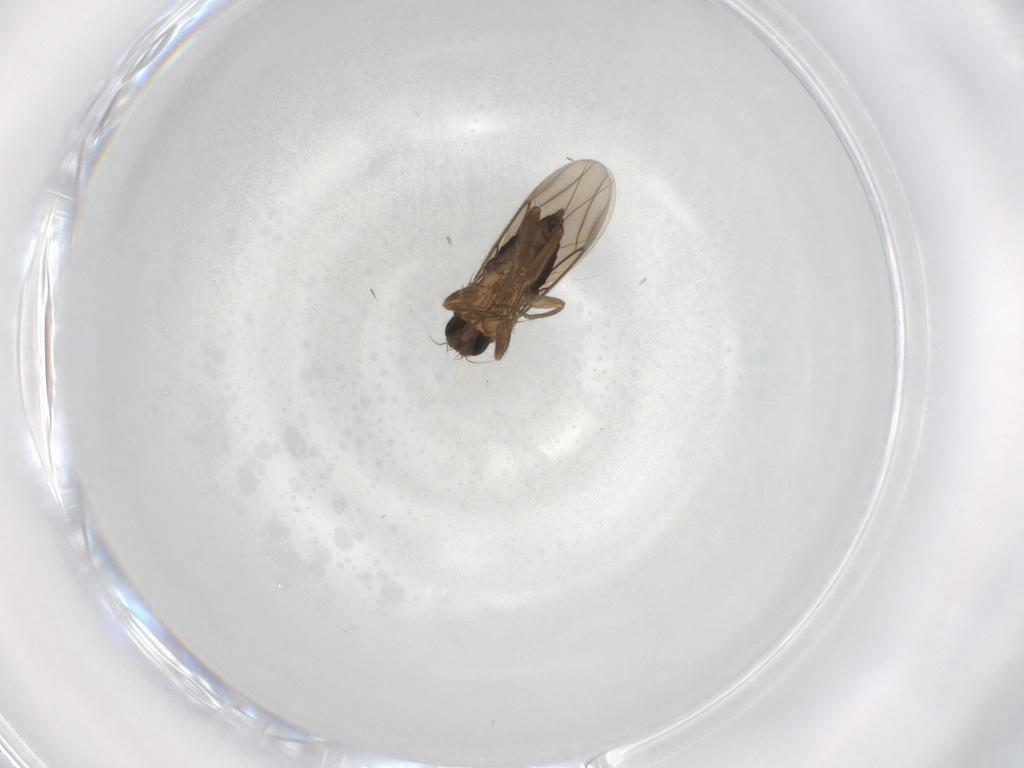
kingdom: Animalia
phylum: Arthropoda
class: Insecta
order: Diptera
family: Phoridae
